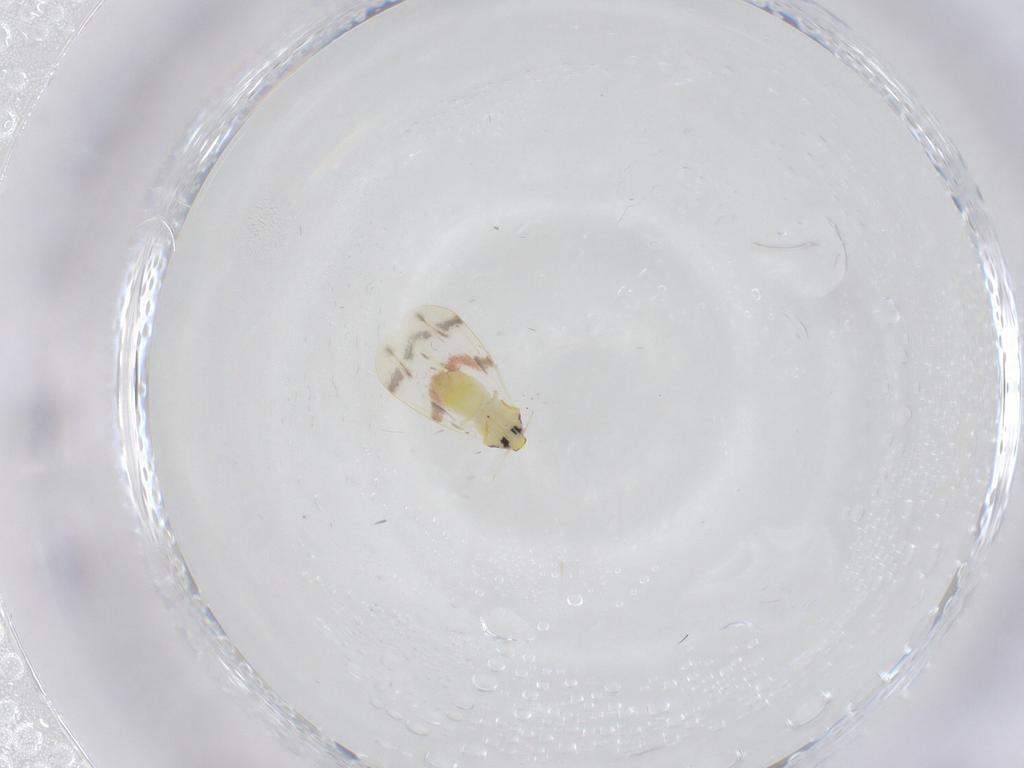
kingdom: Animalia
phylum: Arthropoda
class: Insecta
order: Hemiptera
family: Aleyrodidae
